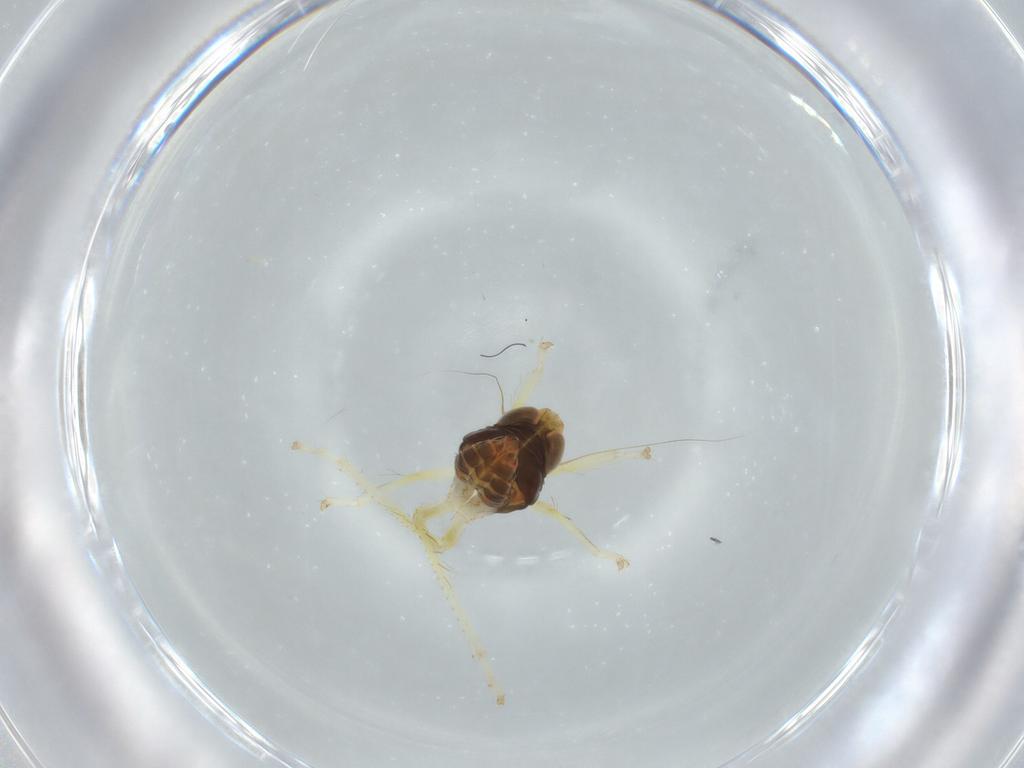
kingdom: Animalia
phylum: Arthropoda
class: Insecta
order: Hemiptera
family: Cicadellidae
